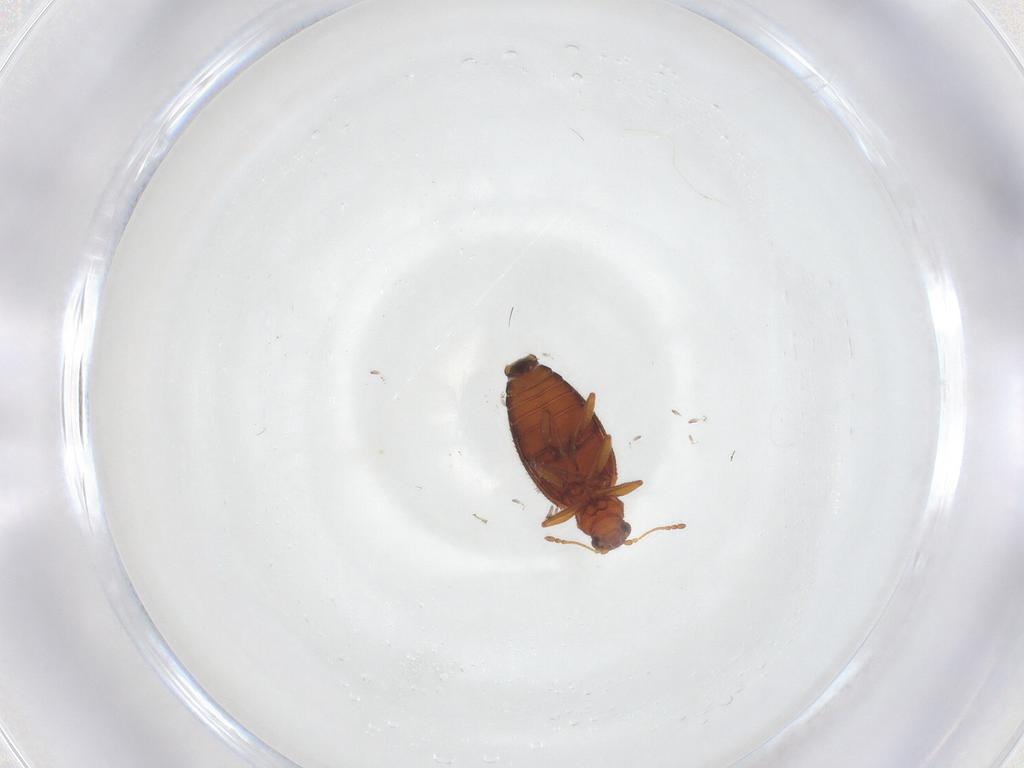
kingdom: Animalia
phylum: Arthropoda
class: Insecta
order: Coleoptera
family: Latridiidae
